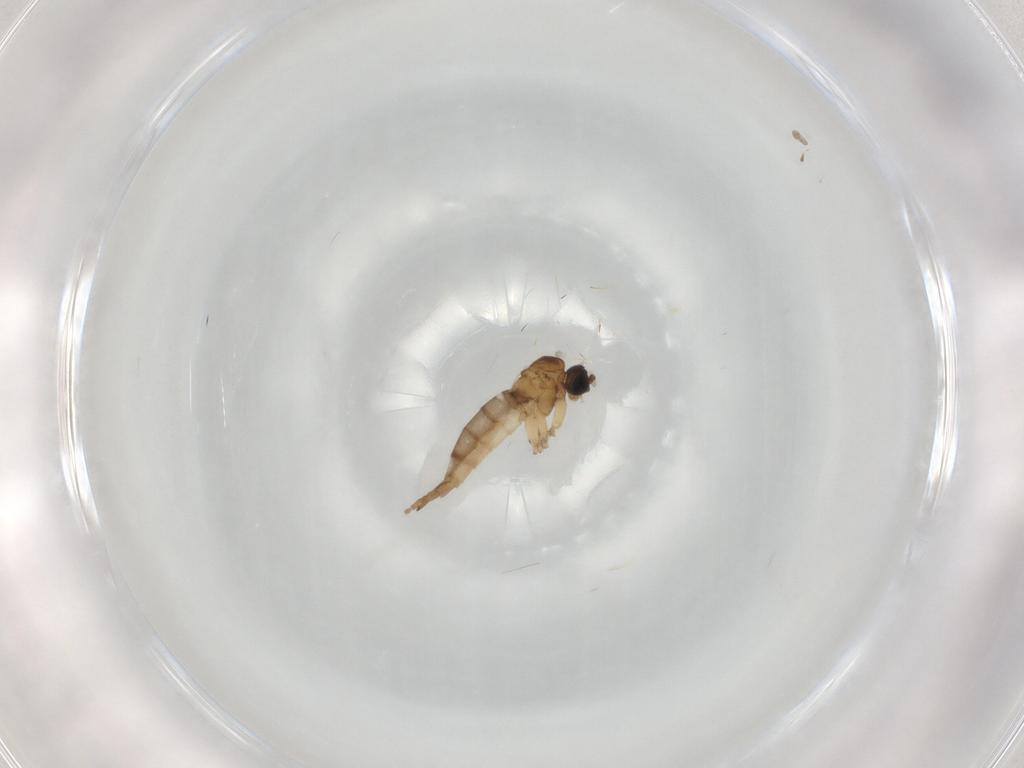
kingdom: Animalia
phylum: Arthropoda
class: Insecta
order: Diptera
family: Sciaridae
